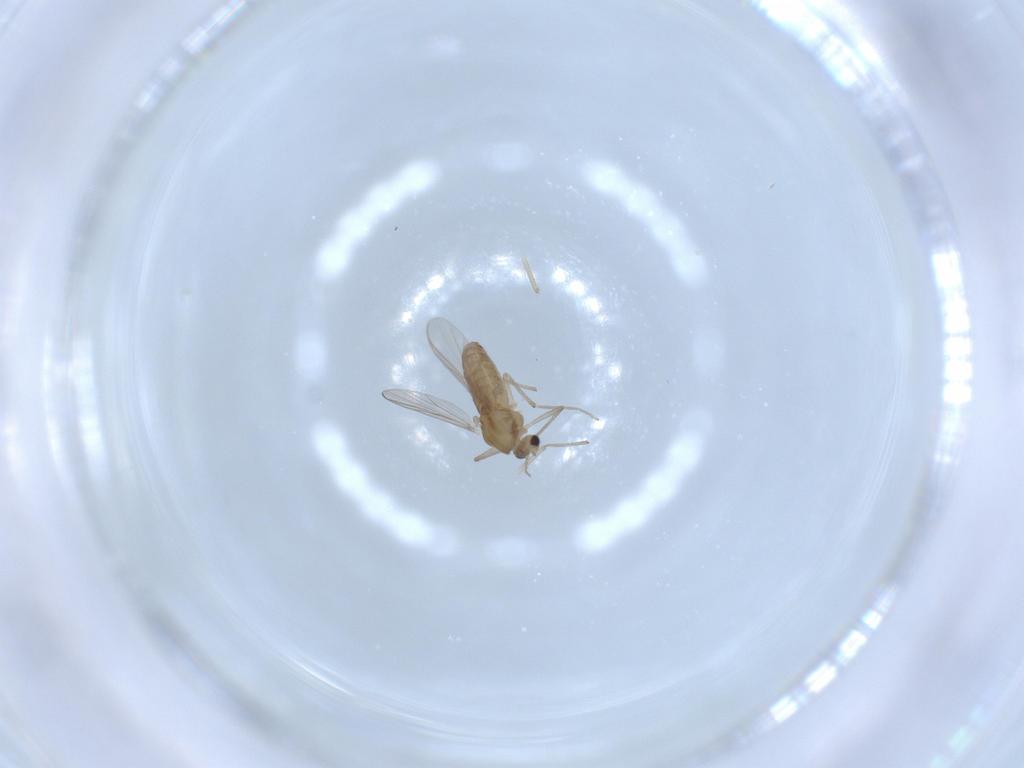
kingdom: Animalia
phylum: Arthropoda
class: Insecta
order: Diptera
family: Chironomidae
